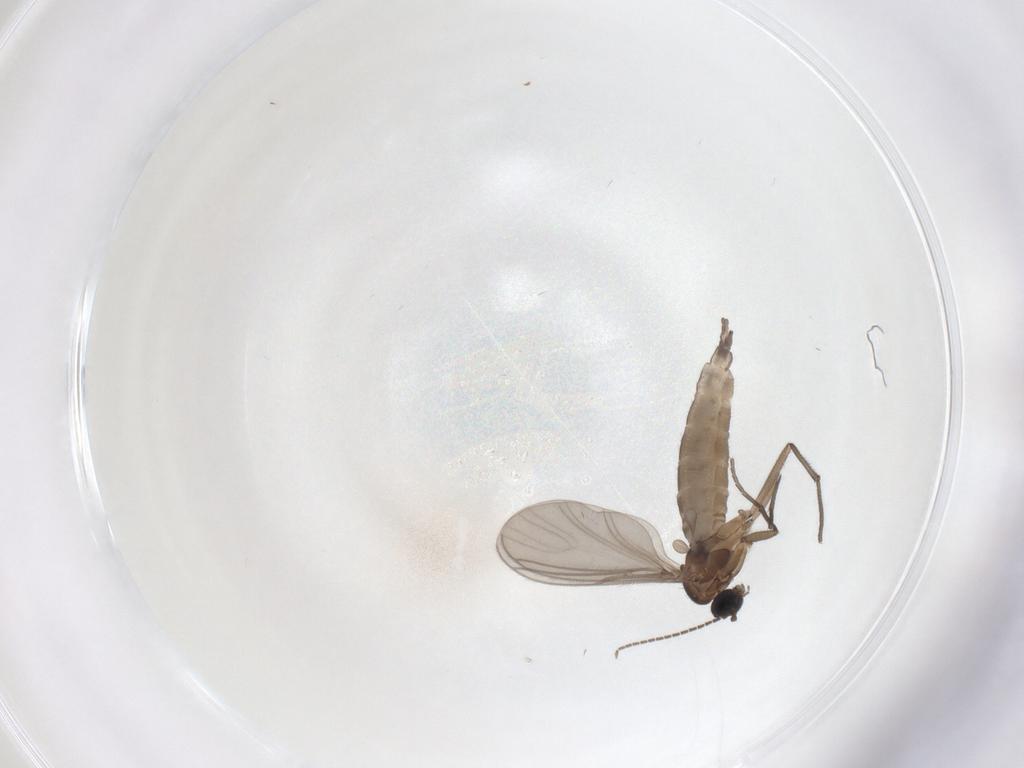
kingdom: Animalia
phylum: Arthropoda
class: Insecta
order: Diptera
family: Sciaridae
